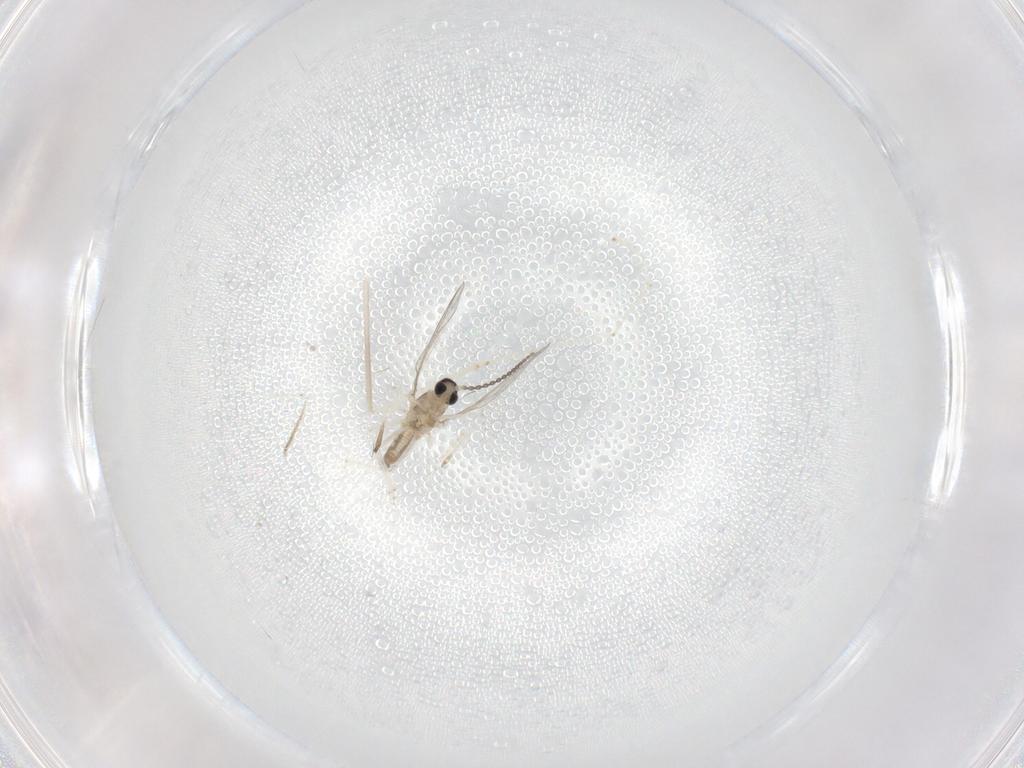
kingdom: Animalia
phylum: Arthropoda
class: Insecta
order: Diptera
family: Cecidomyiidae
